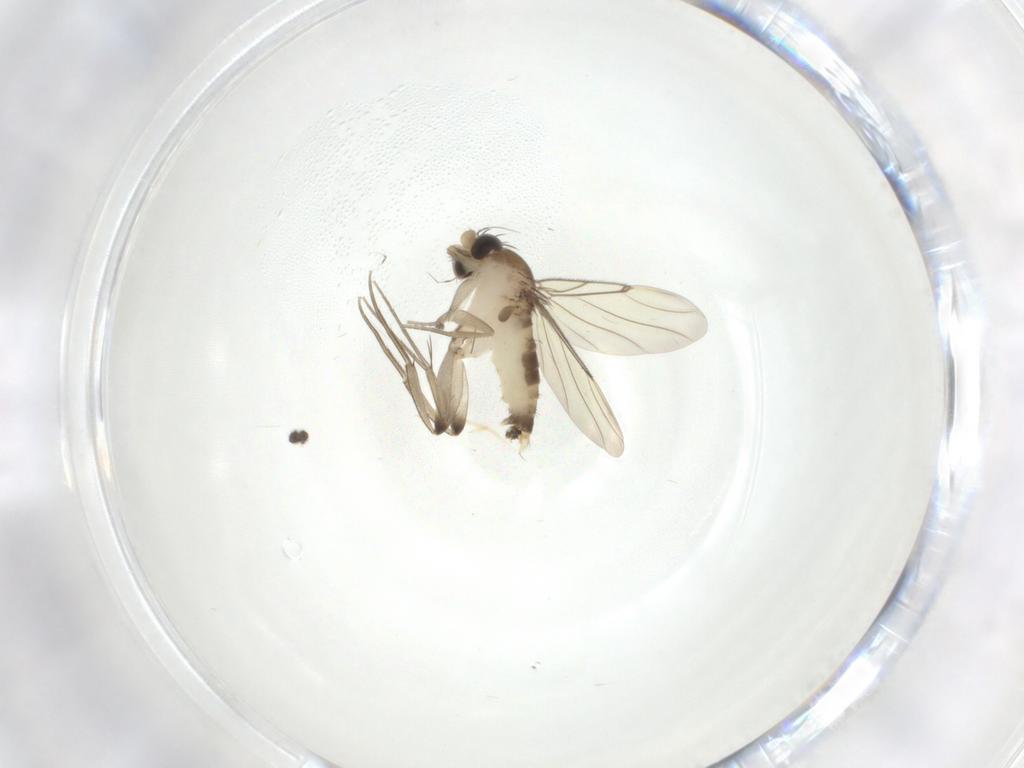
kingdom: Animalia
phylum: Arthropoda
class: Insecta
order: Diptera
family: Phoridae
